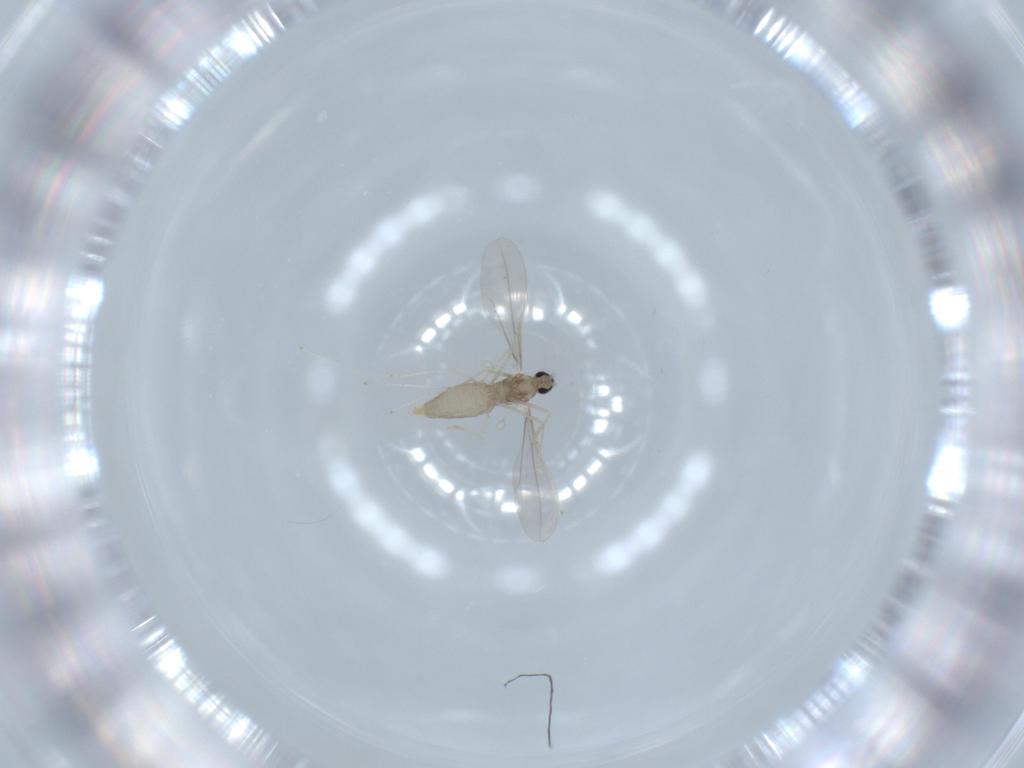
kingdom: Animalia
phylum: Arthropoda
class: Insecta
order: Diptera
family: Cecidomyiidae
